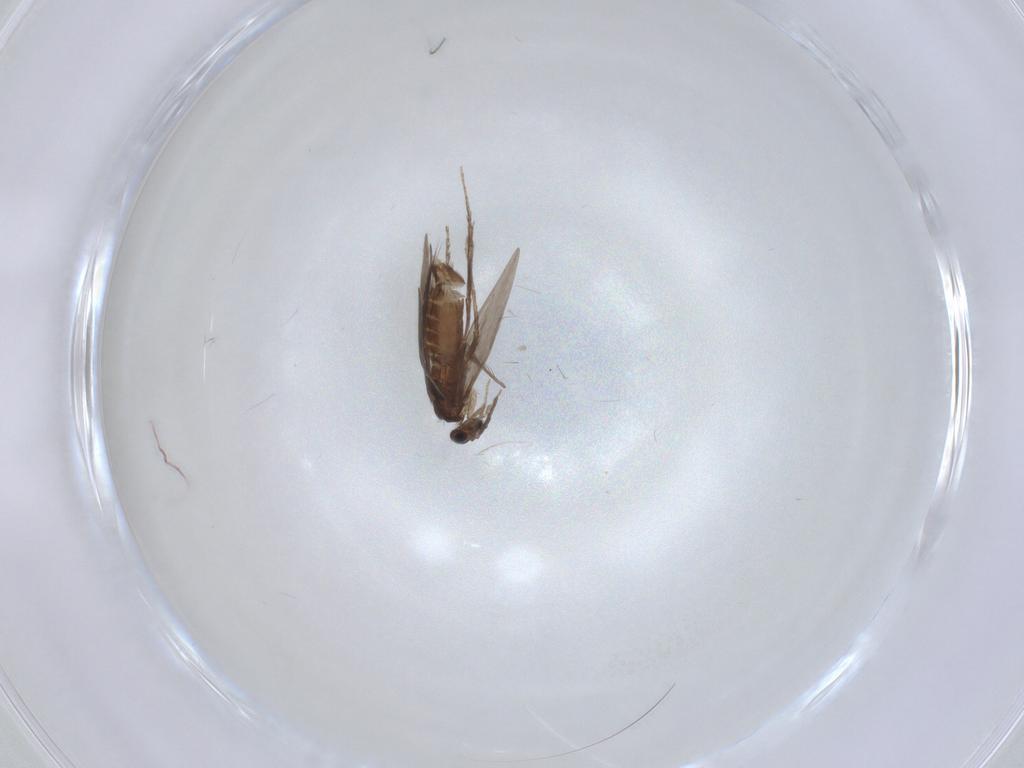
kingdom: Animalia
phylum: Arthropoda
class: Insecta
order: Trichoptera
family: Hydroptilidae
